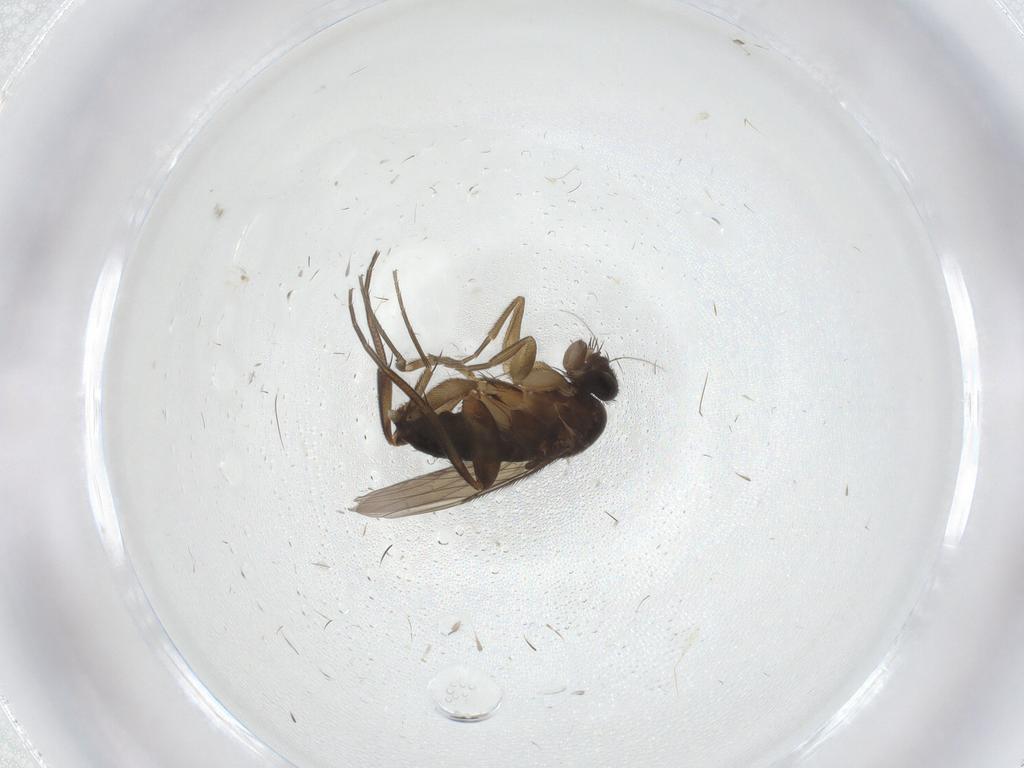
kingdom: Animalia
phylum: Arthropoda
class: Insecta
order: Diptera
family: Phoridae
